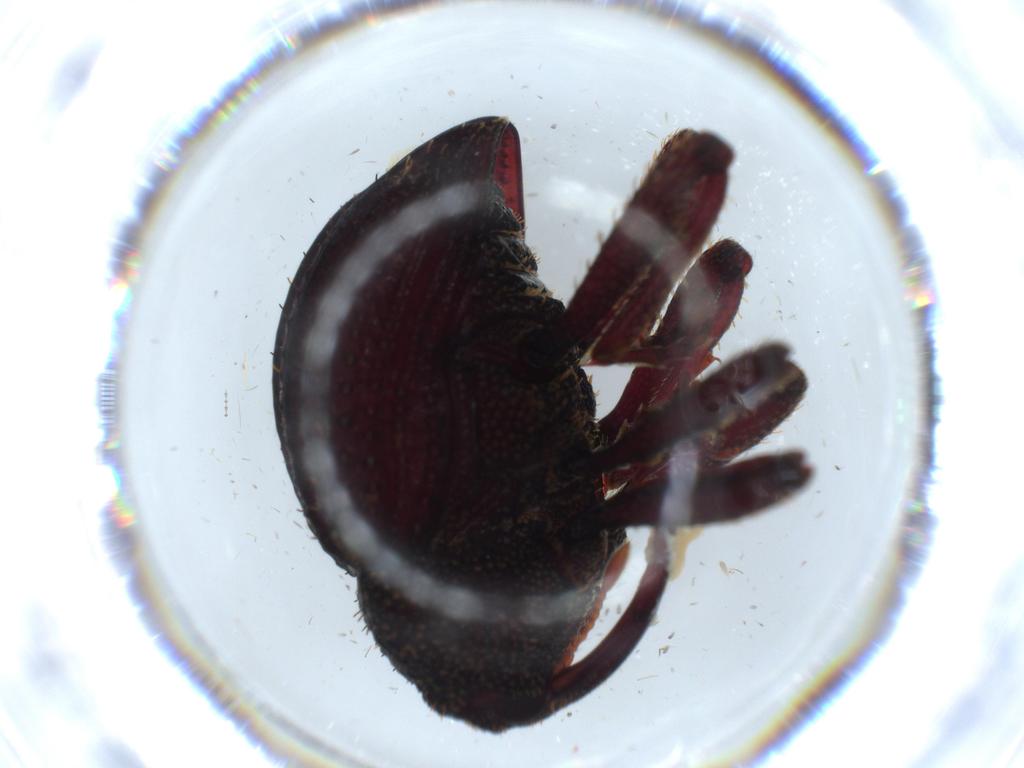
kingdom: Animalia
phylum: Arthropoda
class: Insecta
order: Coleoptera
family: Curculionidae
